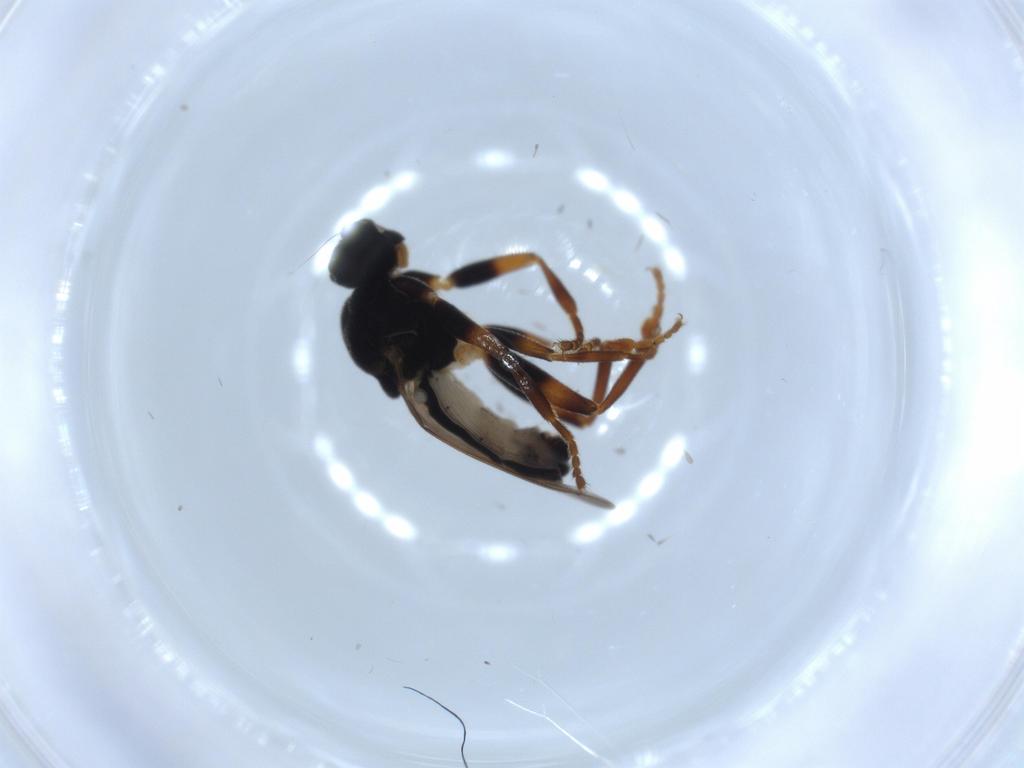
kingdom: Animalia
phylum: Arthropoda
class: Insecta
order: Diptera
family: Sphaeroceridae
